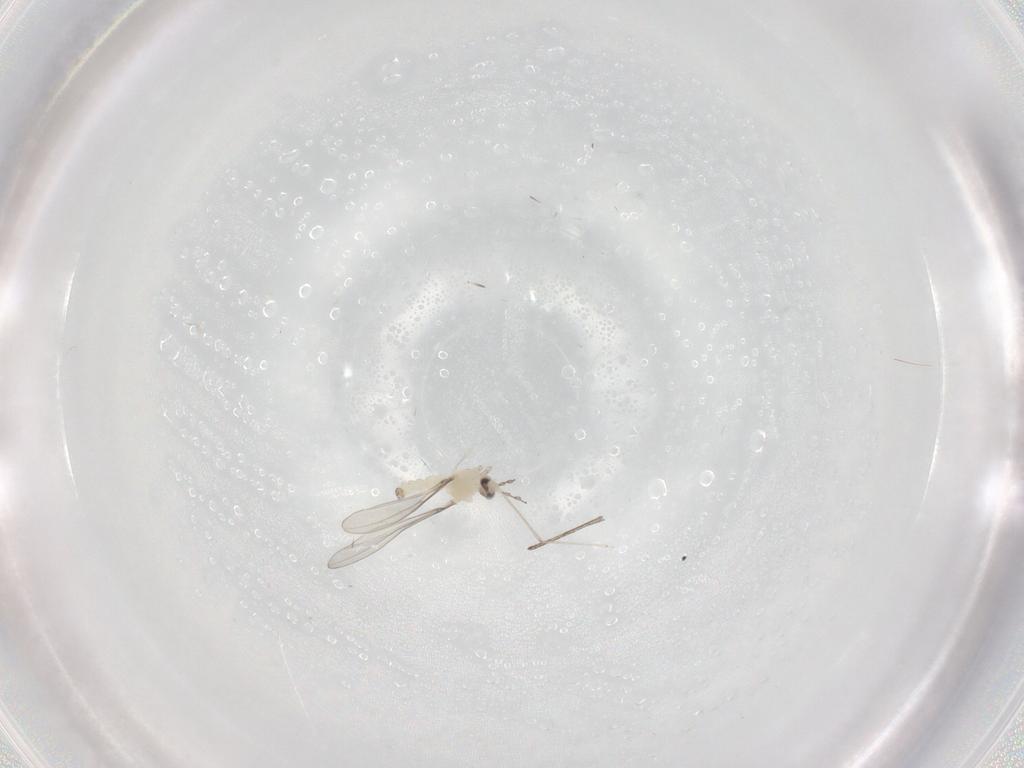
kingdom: Animalia
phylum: Arthropoda
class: Insecta
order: Diptera
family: Cecidomyiidae
